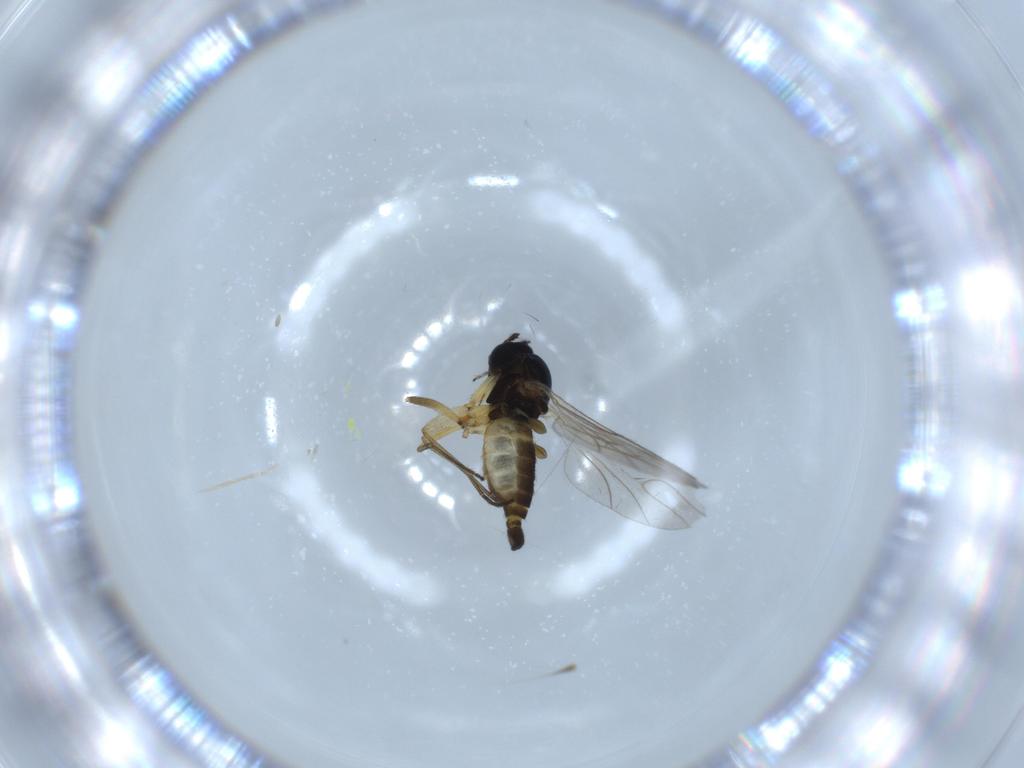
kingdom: Animalia
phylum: Arthropoda
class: Insecta
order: Diptera
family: Sciaridae
